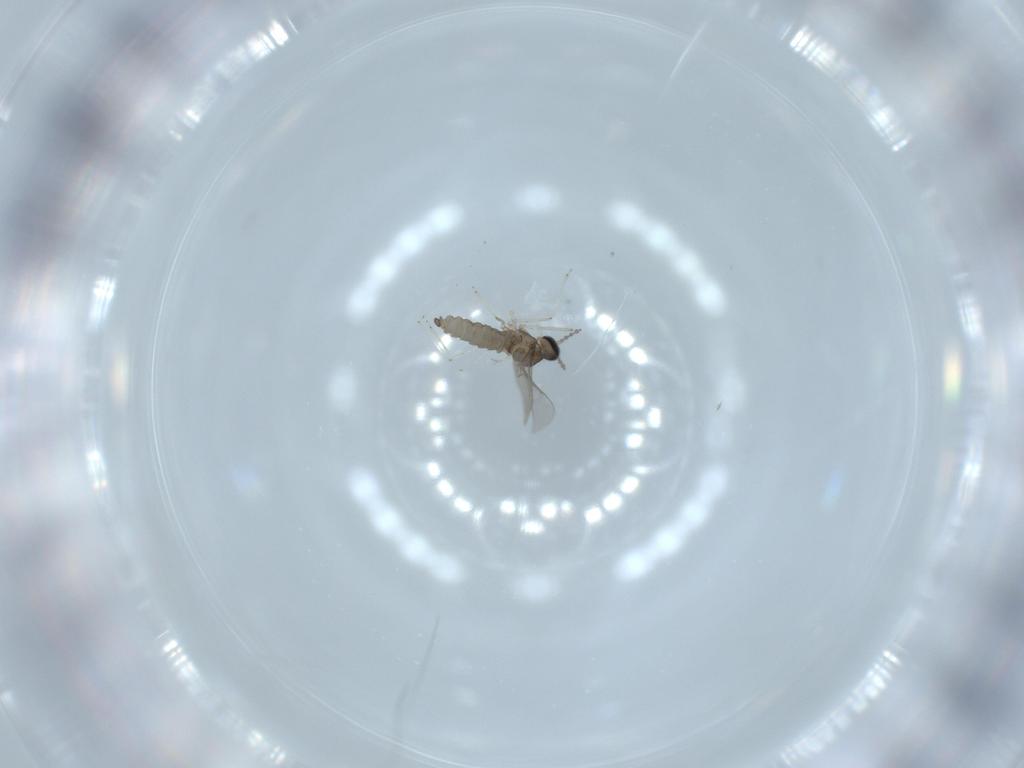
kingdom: Animalia
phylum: Arthropoda
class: Insecta
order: Diptera
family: Cecidomyiidae
